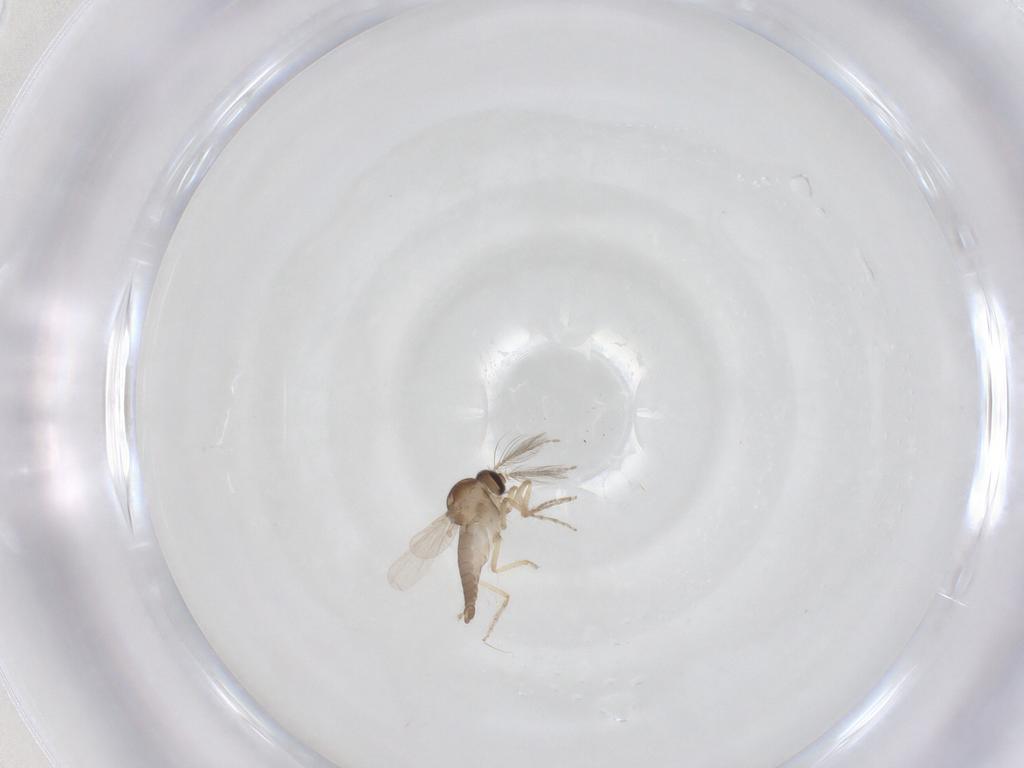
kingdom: Animalia
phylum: Arthropoda
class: Insecta
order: Diptera
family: Ceratopogonidae
